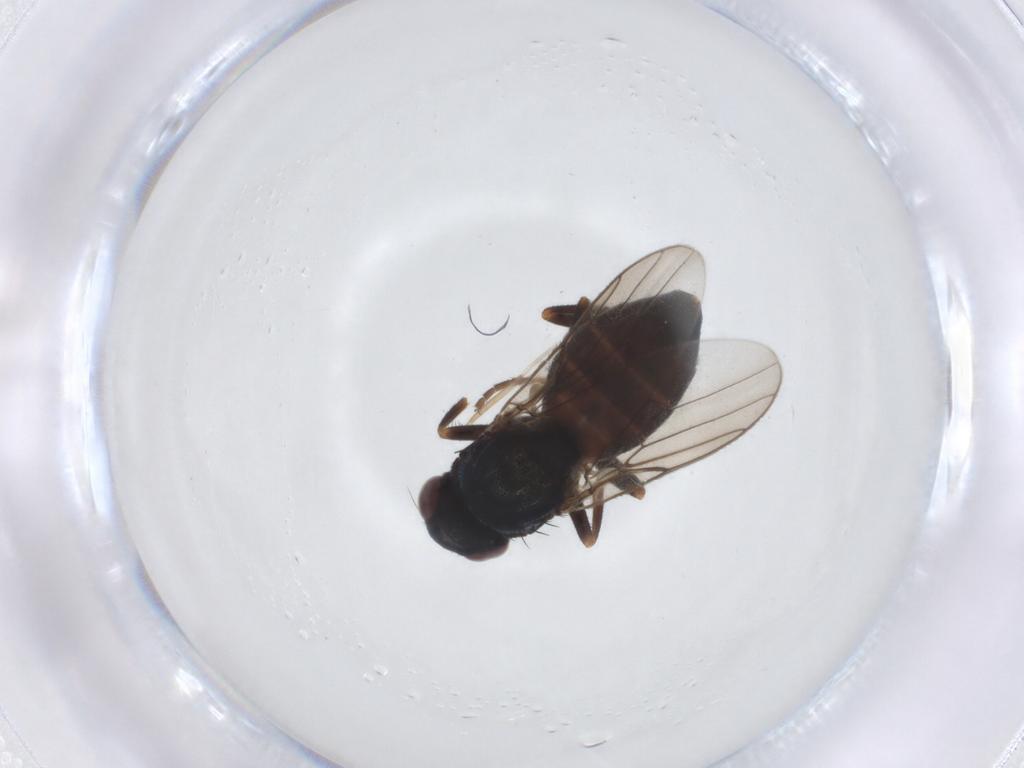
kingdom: Animalia
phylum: Arthropoda
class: Insecta
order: Diptera
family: Chloropidae
